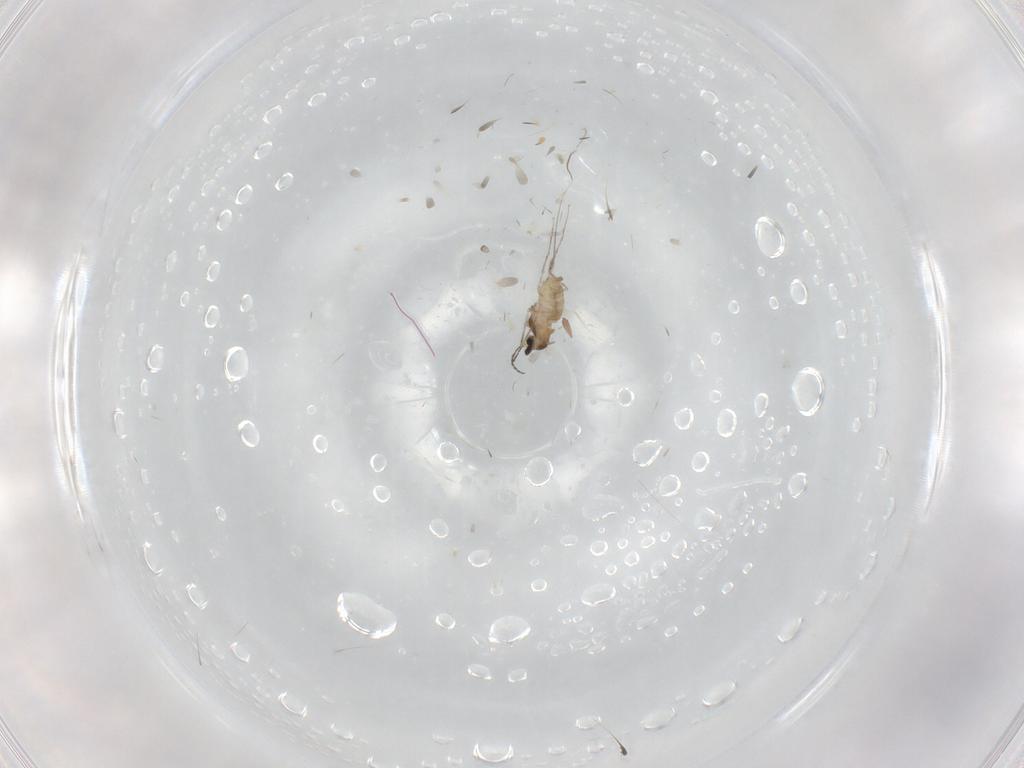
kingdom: Animalia
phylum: Arthropoda
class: Insecta
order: Diptera
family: Cecidomyiidae
